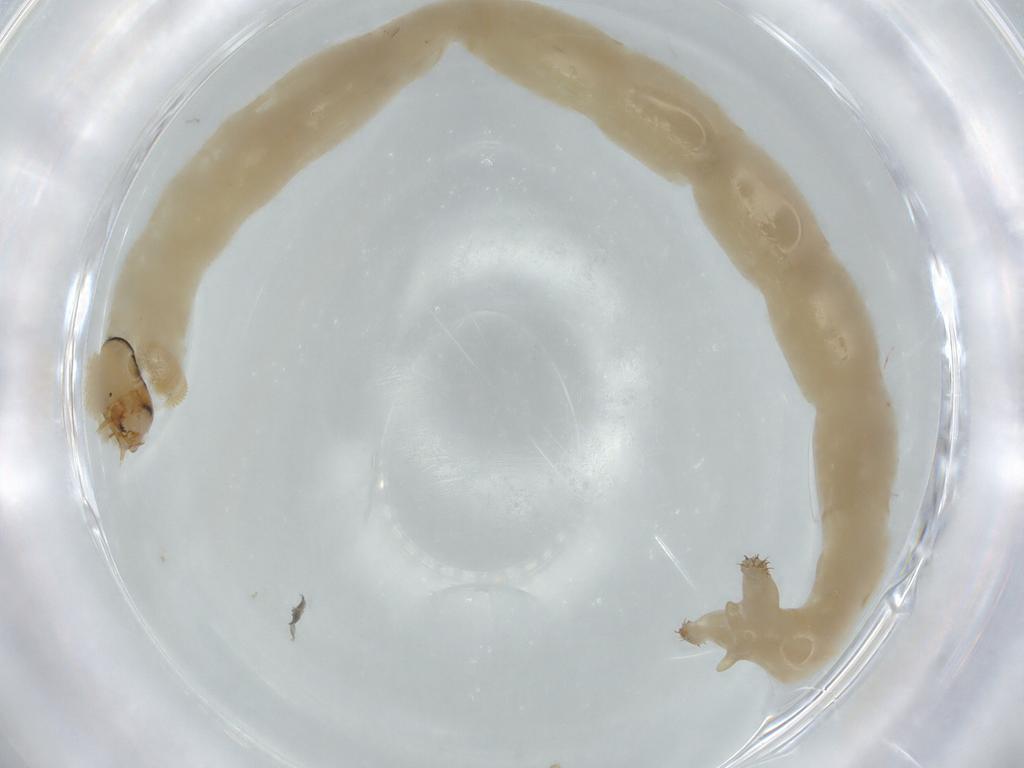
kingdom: Animalia
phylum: Arthropoda
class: Insecta
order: Diptera
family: Chironomidae
